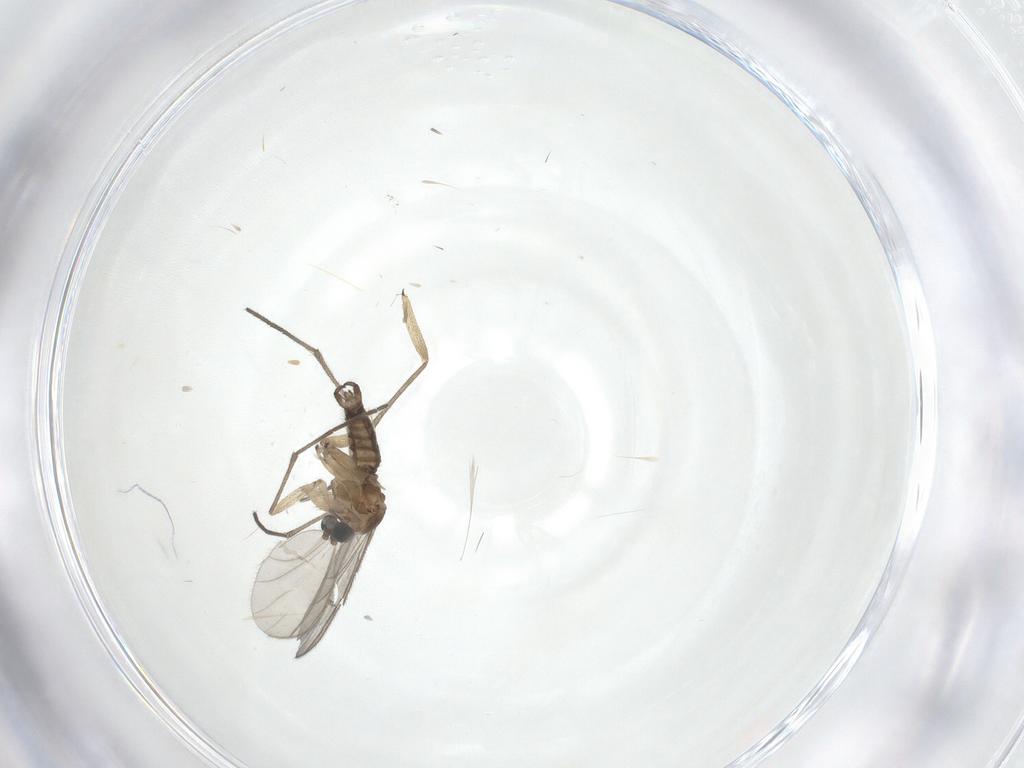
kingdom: Animalia
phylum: Arthropoda
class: Insecta
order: Diptera
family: Sciaridae
